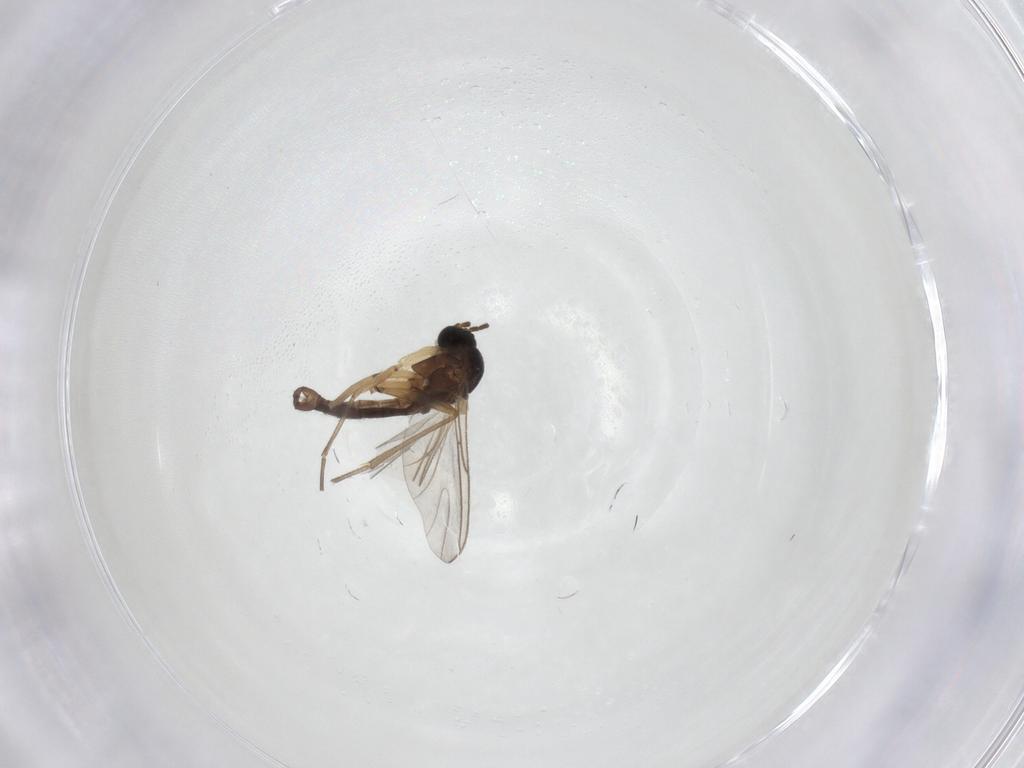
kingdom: Animalia
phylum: Arthropoda
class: Insecta
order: Diptera
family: Sciaridae
